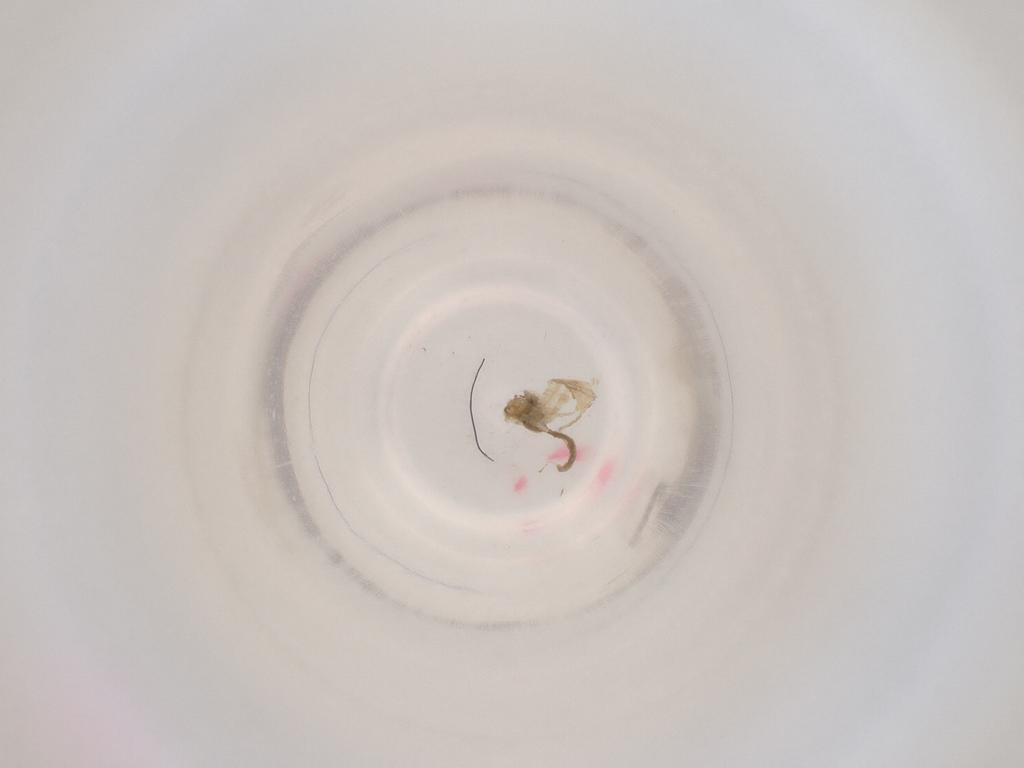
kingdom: Animalia
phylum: Arthropoda
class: Insecta
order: Diptera
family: Cecidomyiidae
